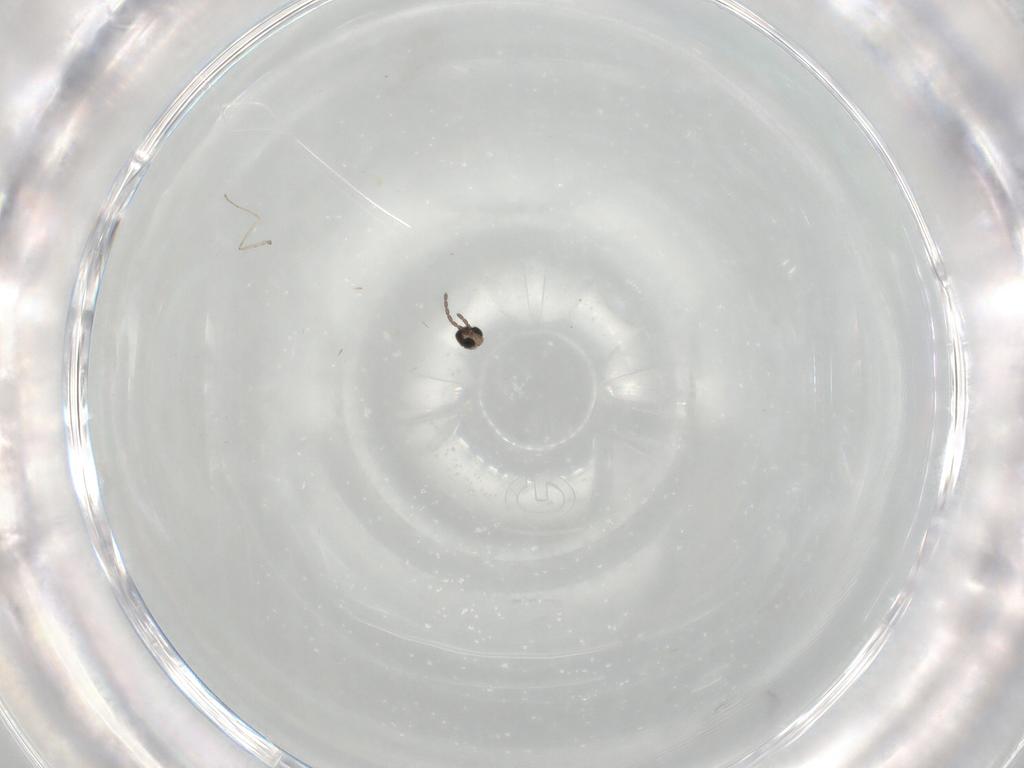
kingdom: Animalia
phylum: Arthropoda
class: Insecta
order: Diptera
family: Cecidomyiidae
